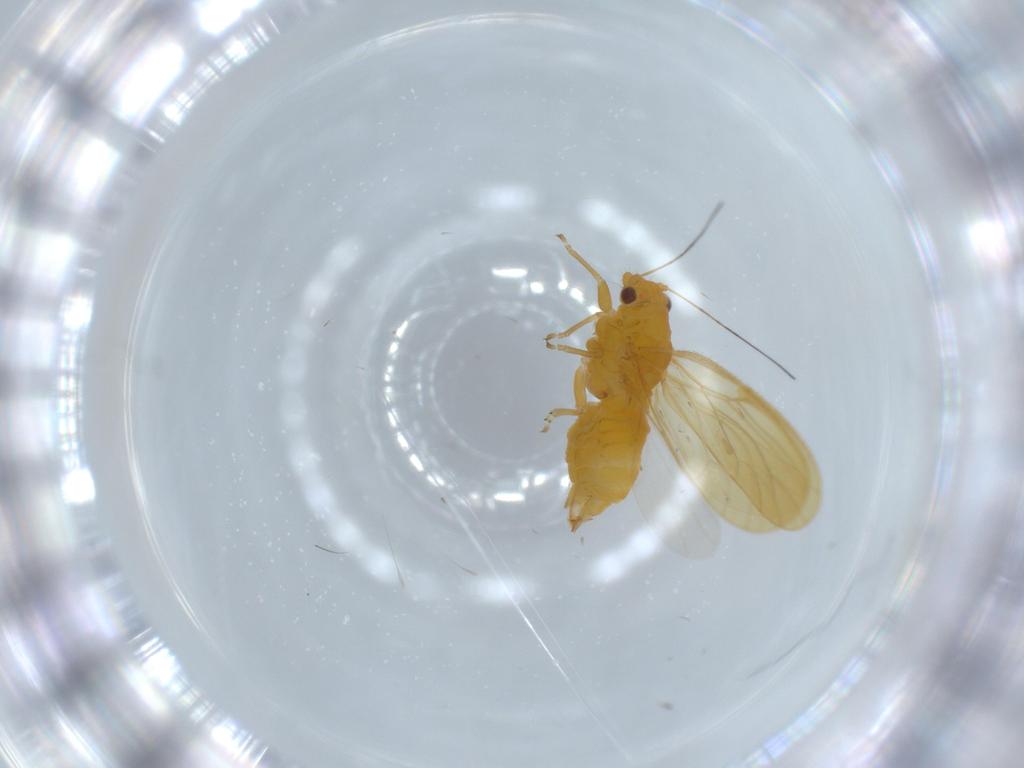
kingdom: Animalia
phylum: Arthropoda
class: Insecta
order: Hemiptera
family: Psyllidae
